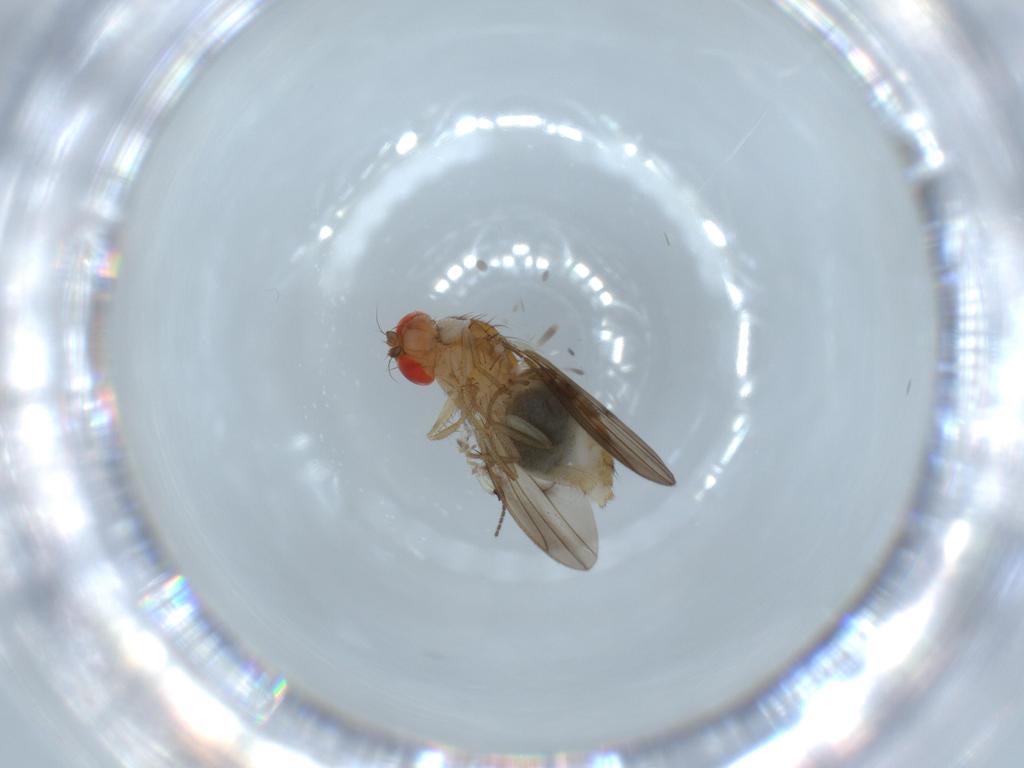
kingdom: Animalia
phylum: Arthropoda
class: Insecta
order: Diptera
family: Drosophilidae
